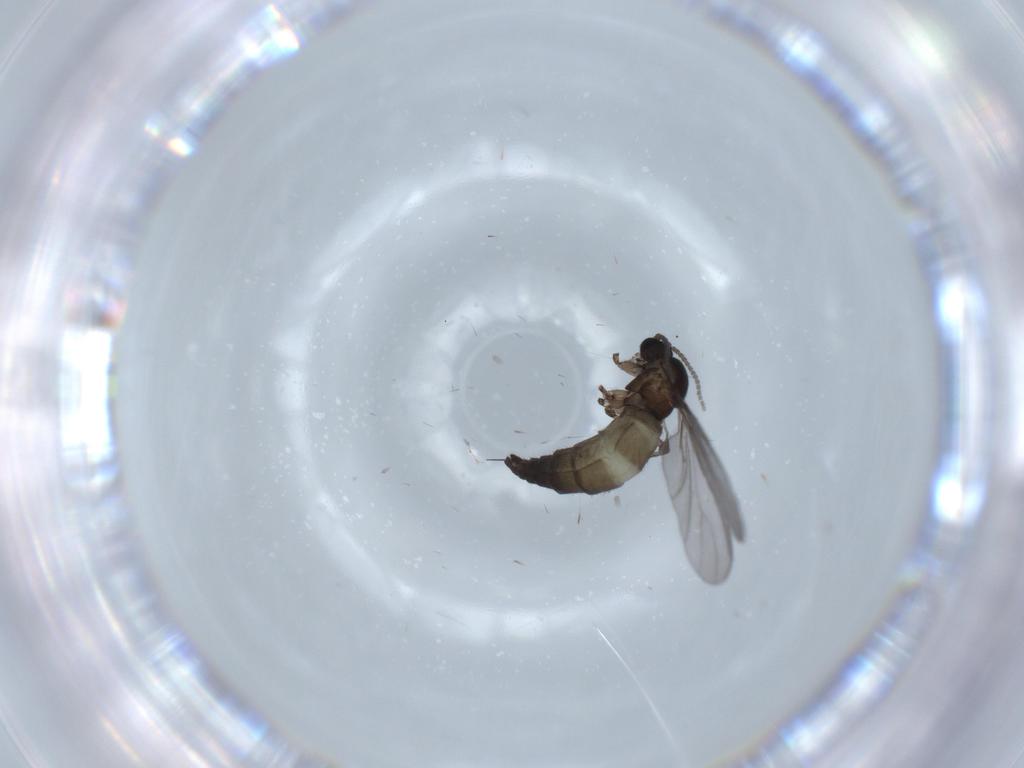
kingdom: Animalia
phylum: Arthropoda
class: Insecta
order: Diptera
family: Sciaridae
